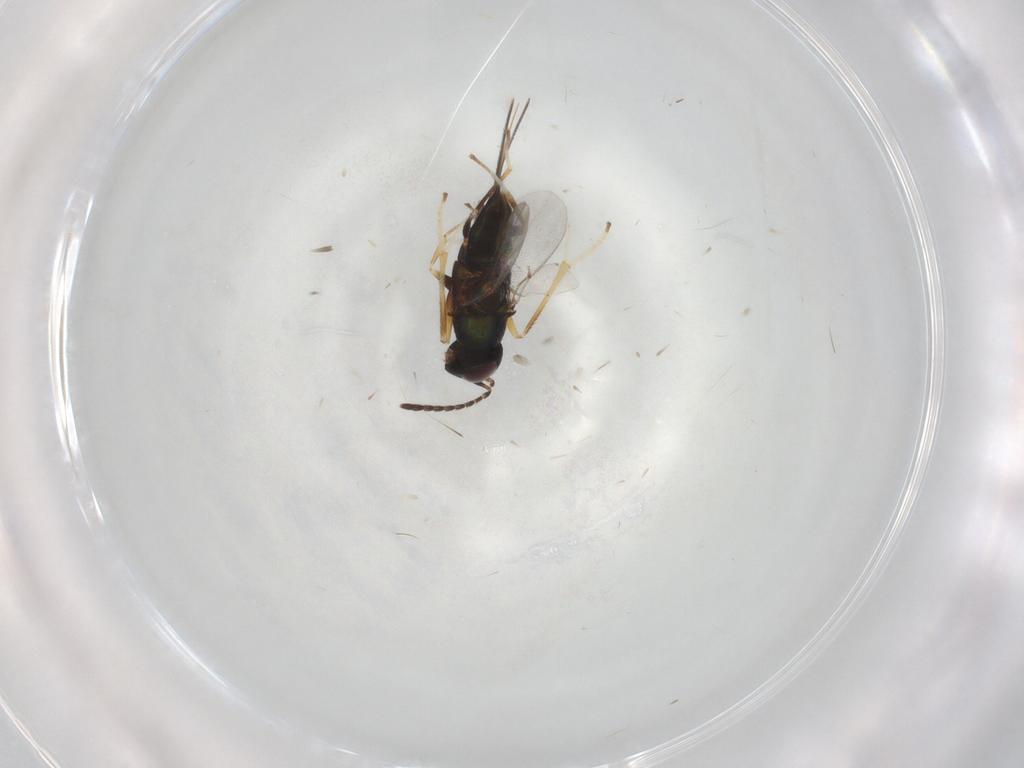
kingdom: Animalia
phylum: Arthropoda
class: Insecta
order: Hymenoptera
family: Encyrtidae
